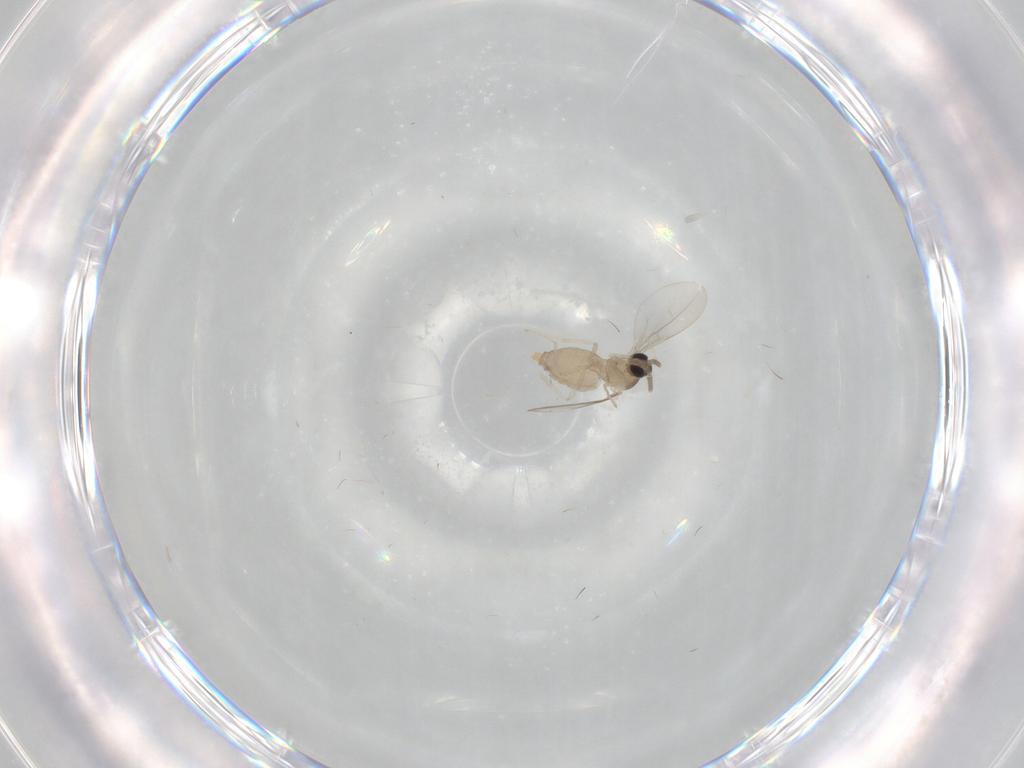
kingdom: Animalia
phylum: Arthropoda
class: Insecta
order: Diptera
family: Cecidomyiidae
